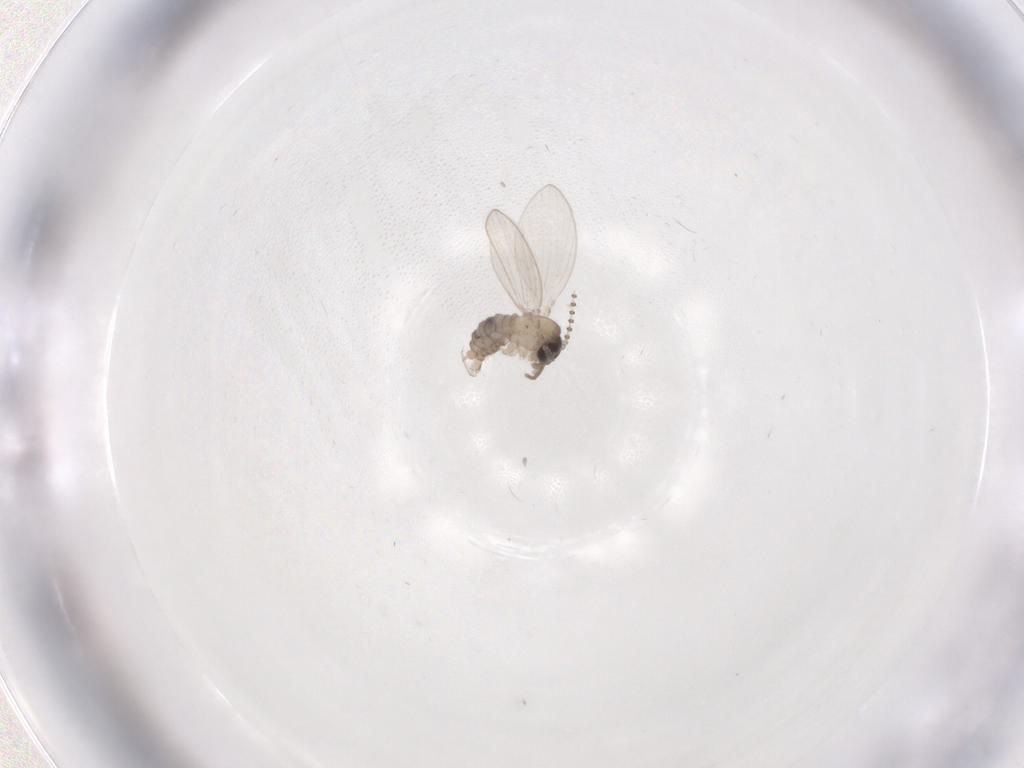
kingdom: Animalia
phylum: Arthropoda
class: Insecta
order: Diptera
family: Psychodidae
